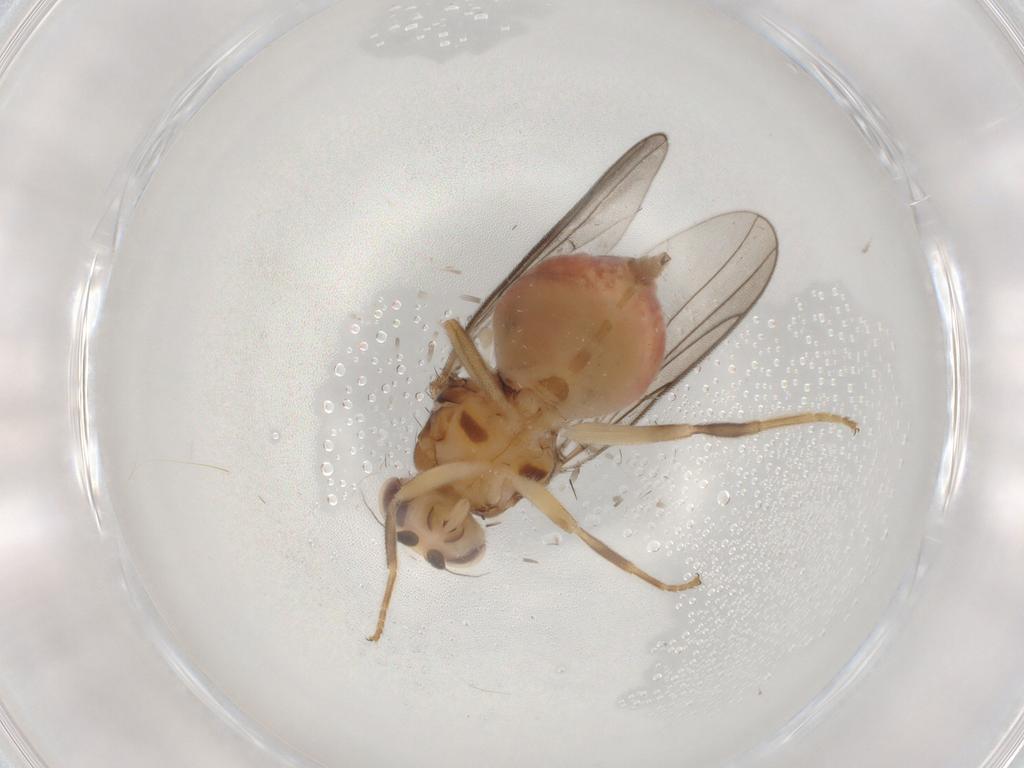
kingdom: Animalia
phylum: Arthropoda
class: Insecta
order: Diptera
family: Chloropidae
